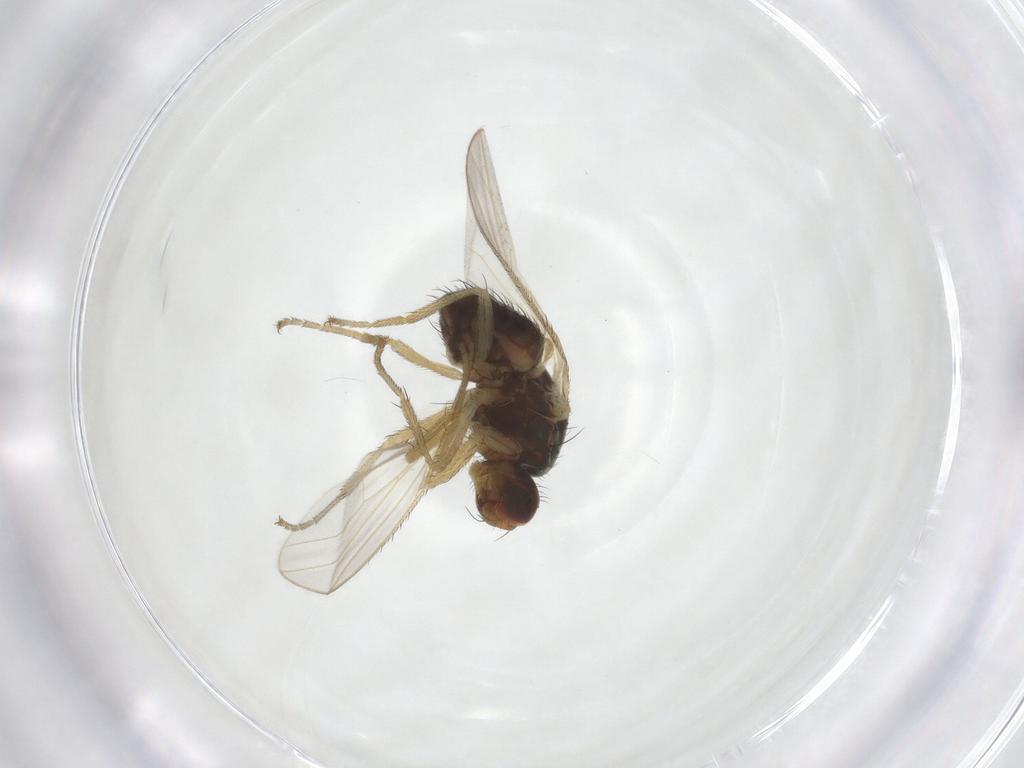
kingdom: Animalia
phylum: Arthropoda
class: Insecta
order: Diptera
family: Heleomyzidae
